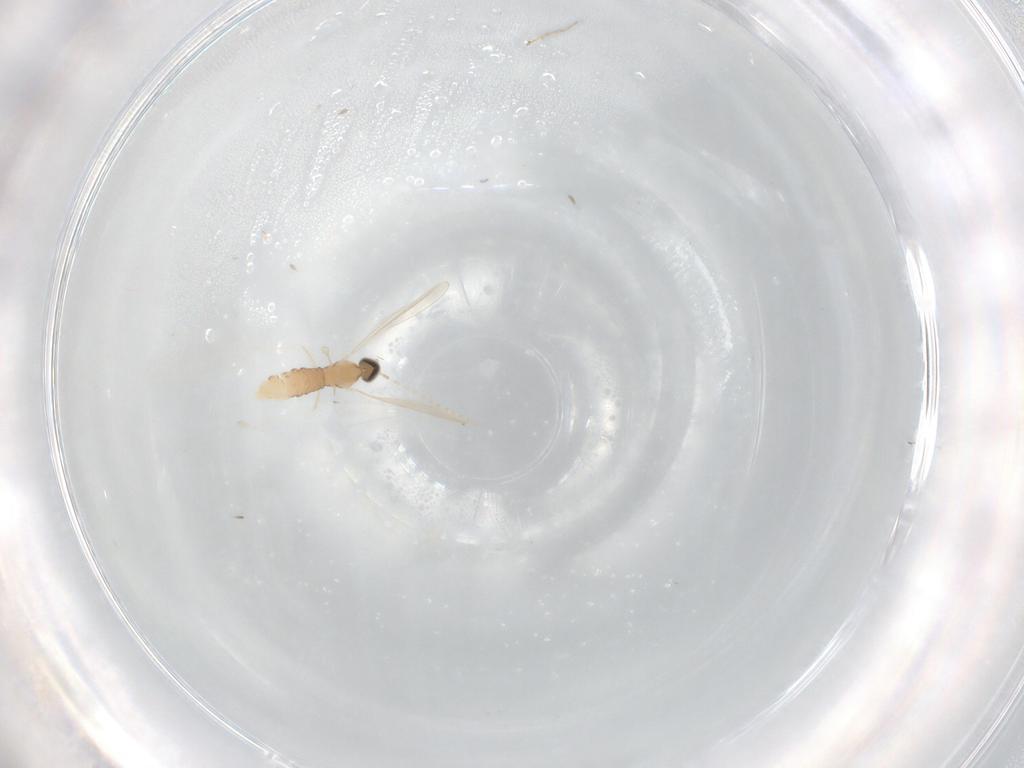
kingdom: Animalia
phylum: Arthropoda
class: Insecta
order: Diptera
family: Cecidomyiidae
